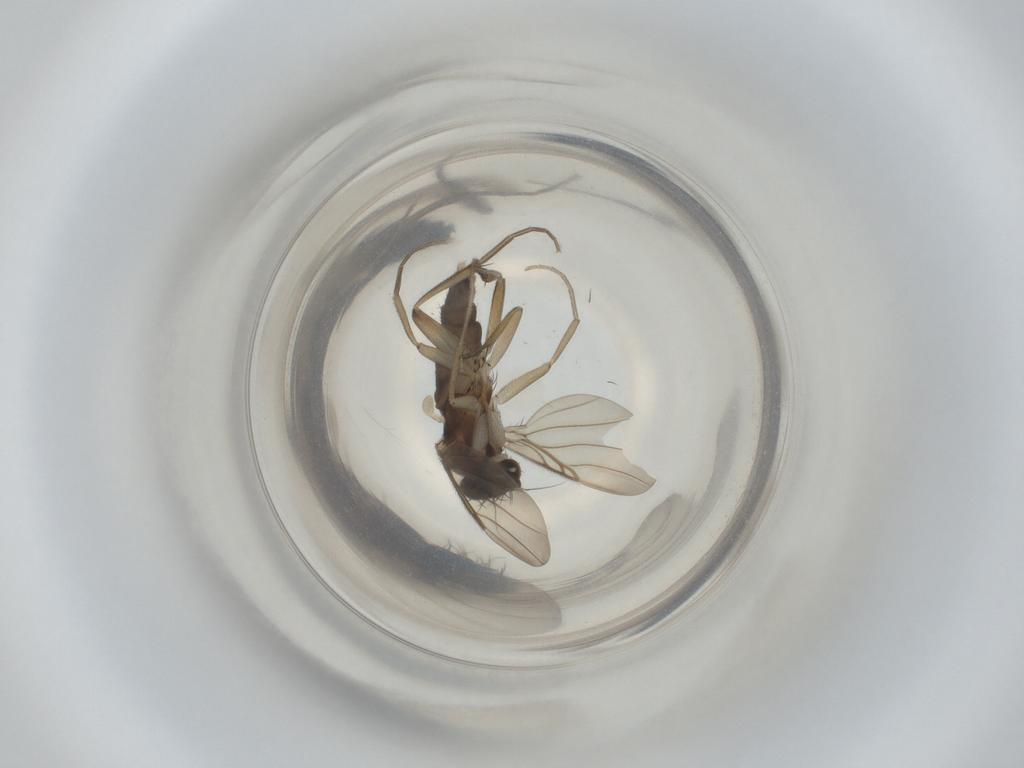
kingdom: Animalia
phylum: Arthropoda
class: Insecta
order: Diptera
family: Phoridae
